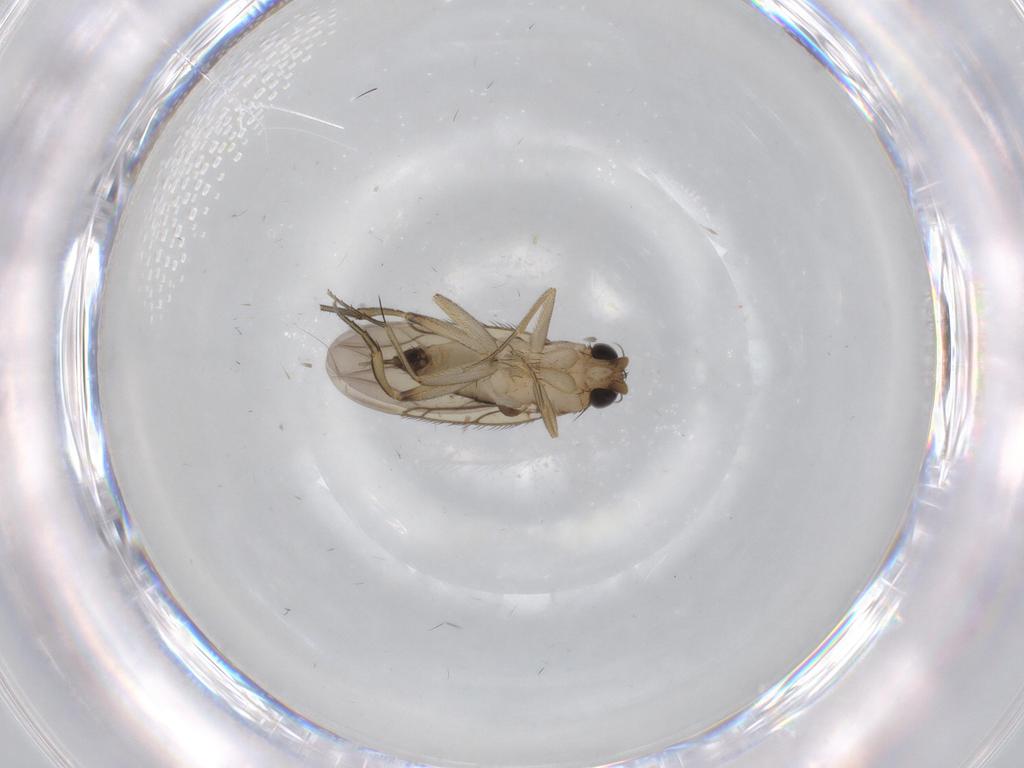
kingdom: Animalia
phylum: Arthropoda
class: Insecta
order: Diptera
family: Phoridae
